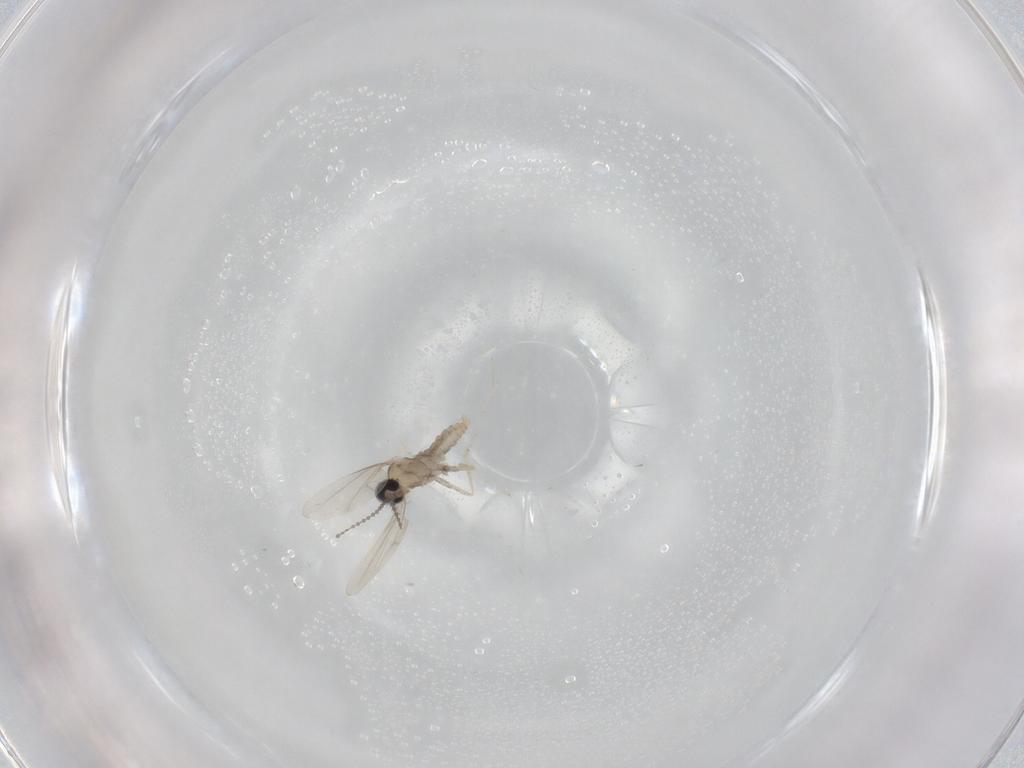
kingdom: Animalia
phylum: Arthropoda
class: Insecta
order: Diptera
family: Cecidomyiidae
